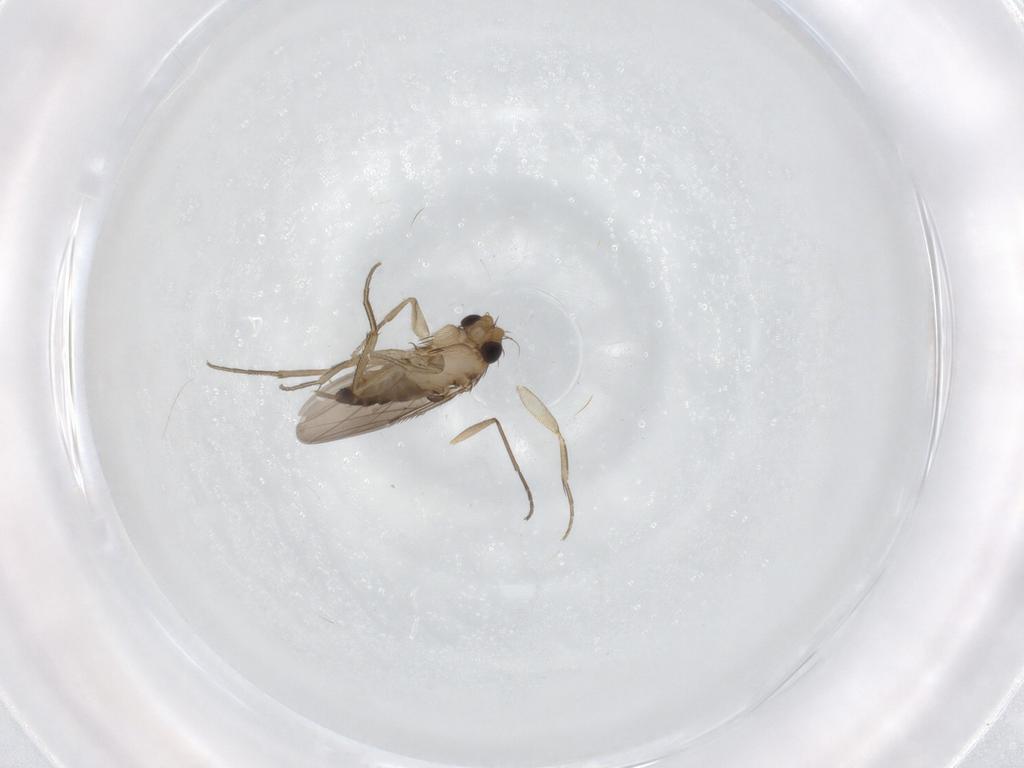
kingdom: Animalia
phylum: Arthropoda
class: Insecta
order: Diptera
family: Phoridae
